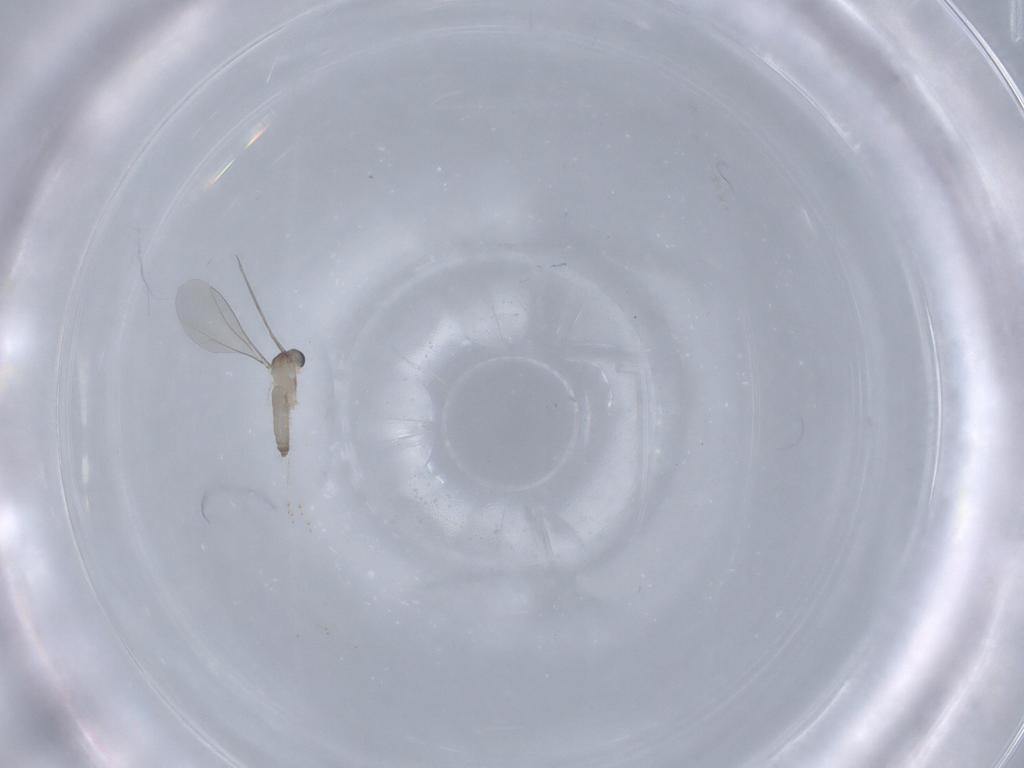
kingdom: Animalia
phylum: Arthropoda
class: Insecta
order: Diptera
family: Cecidomyiidae
